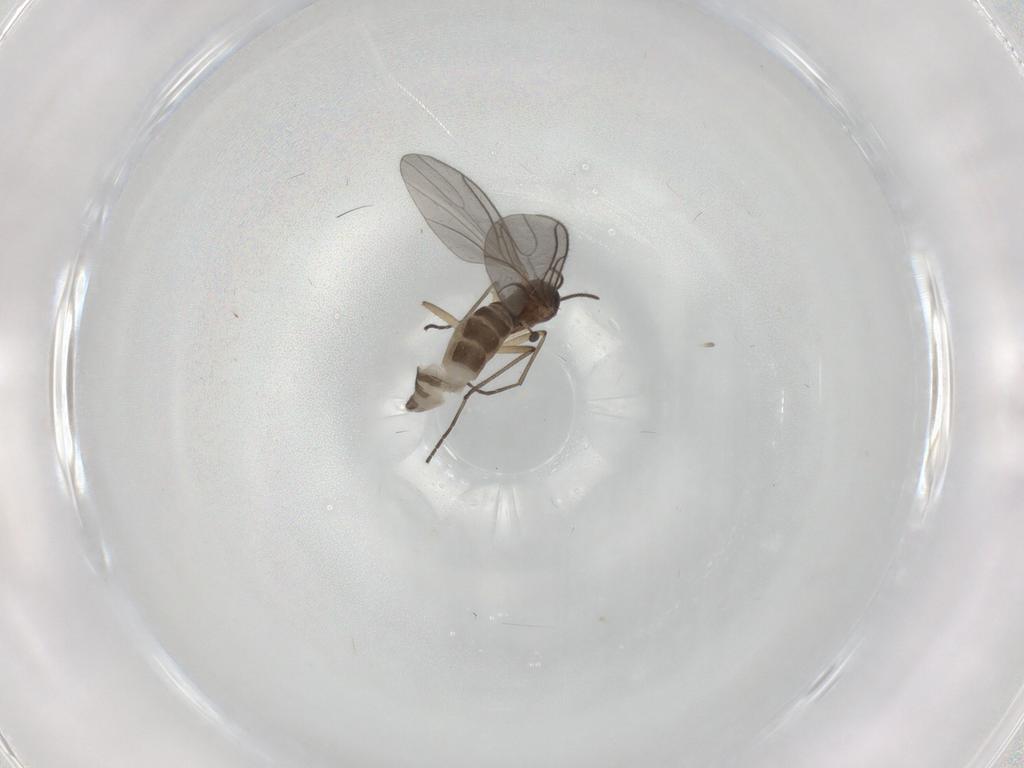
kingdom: Animalia
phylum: Arthropoda
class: Insecta
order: Diptera
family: Sciaridae
